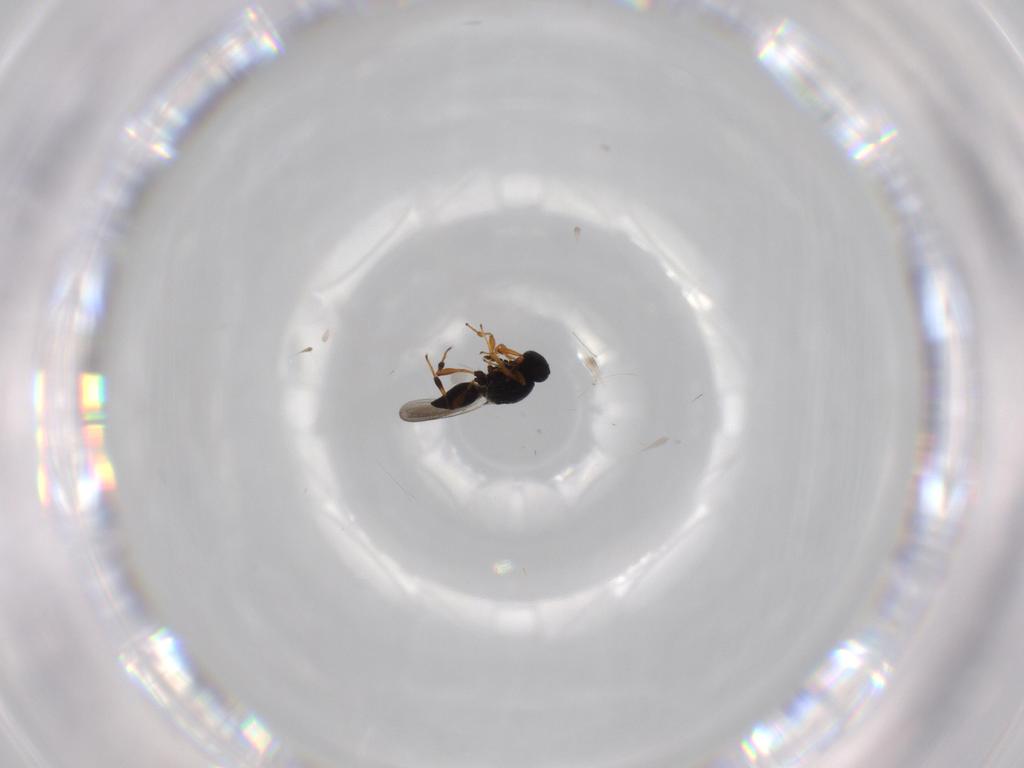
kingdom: Animalia
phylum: Arthropoda
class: Insecta
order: Hymenoptera
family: Platygastridae
